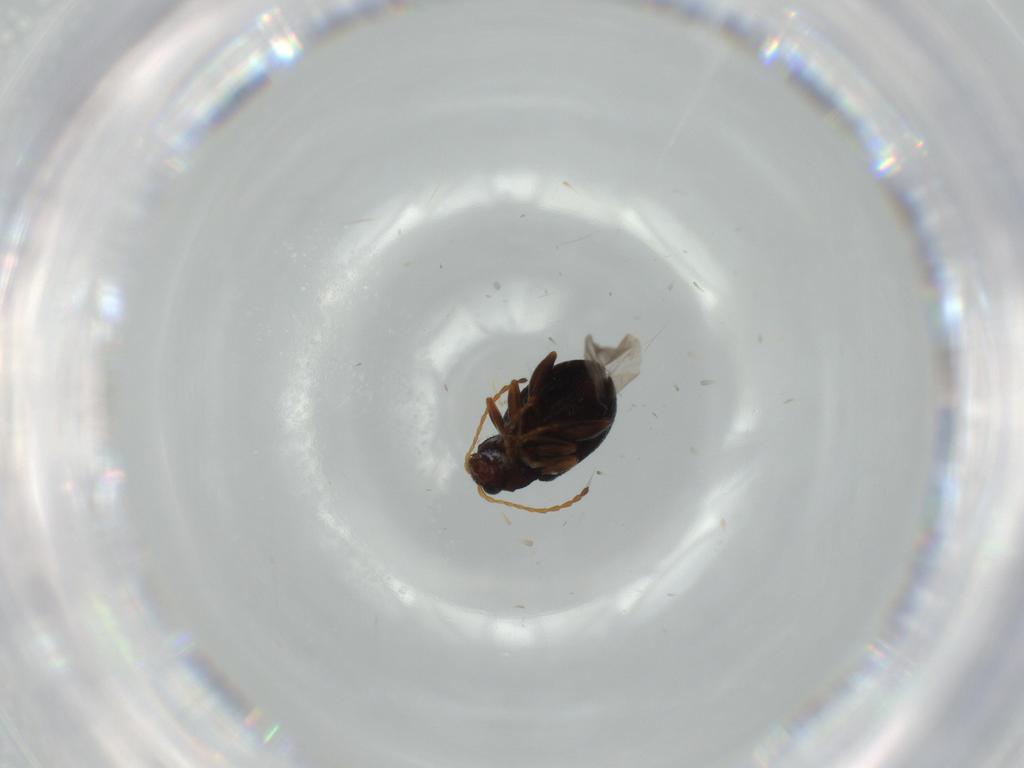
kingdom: Animalia
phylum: Arthropoda
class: Insecta
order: Coleoptera
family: Chrysomelidae
